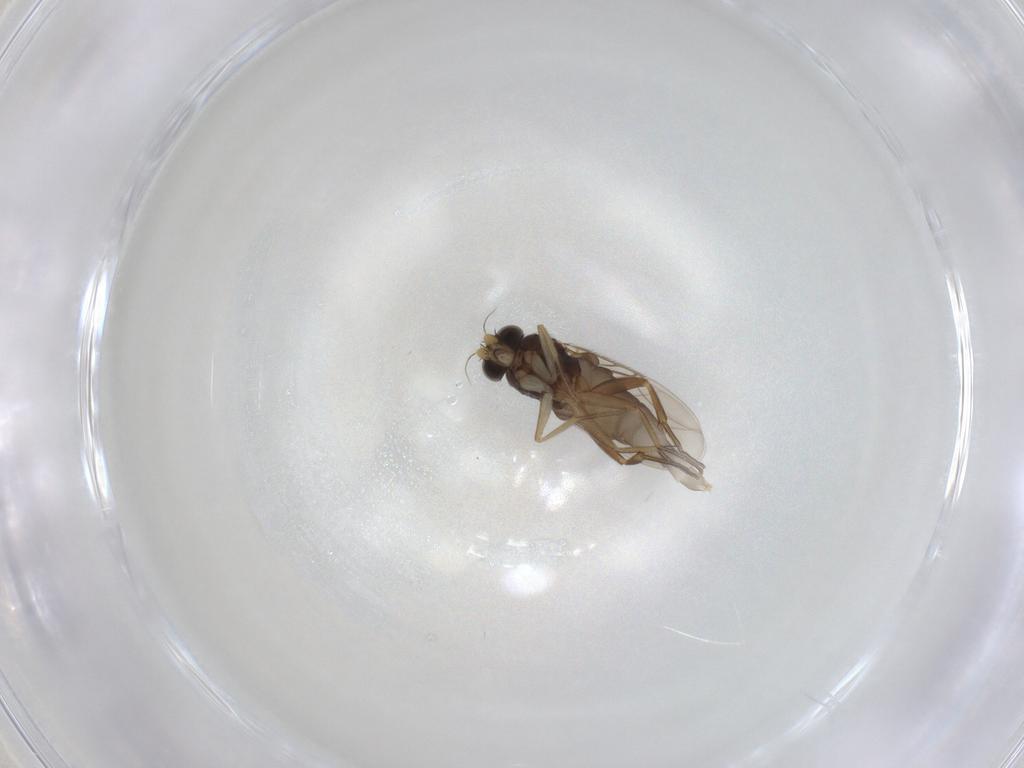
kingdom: Animalia
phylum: Arthropoda
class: Insecta
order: Diptera
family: Phoridae
